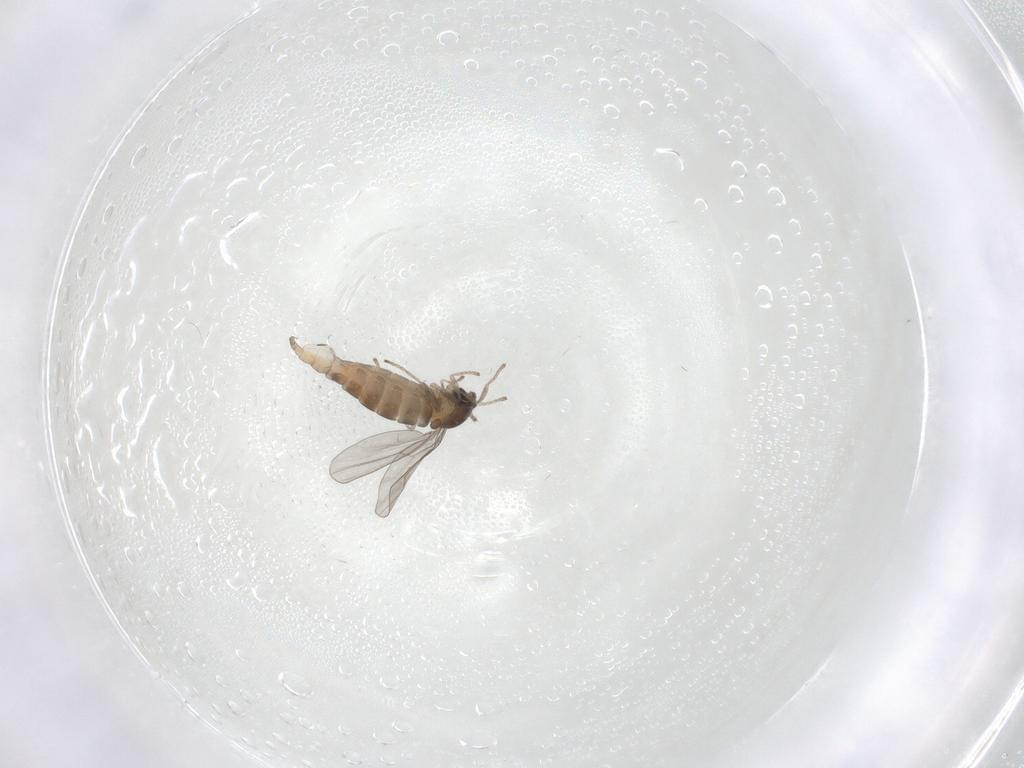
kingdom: Animalia
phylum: Arthropoda
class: Insecta
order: Diptera
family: Cecidomyiidae
